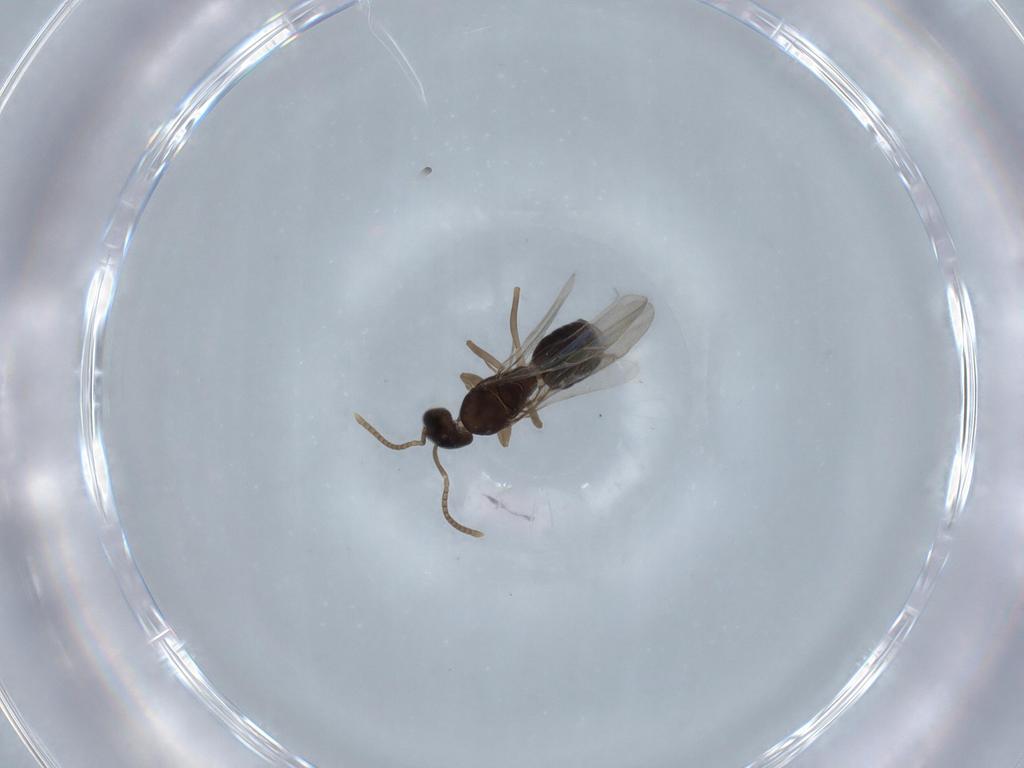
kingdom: Animalia
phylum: Arthropoda
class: Insecta
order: Hymenoptera
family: Formicidae
